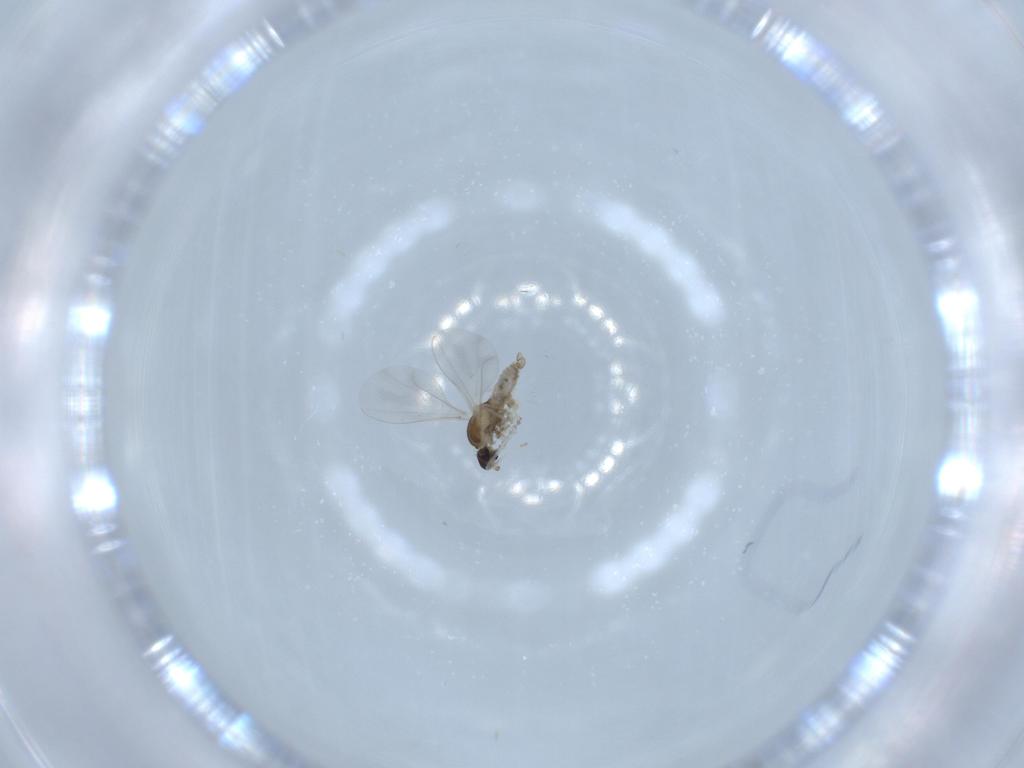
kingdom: Animalia
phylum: Arthropoda
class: Insecta
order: Diptera
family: Cecidomyiidae
